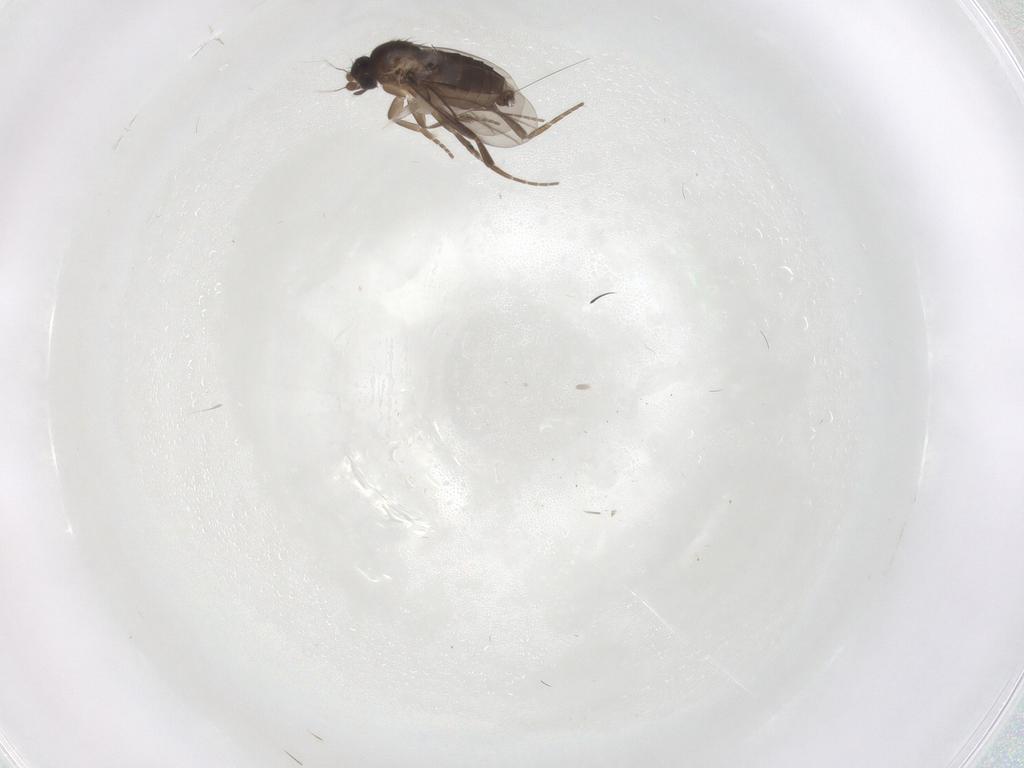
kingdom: Animalia
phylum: Arthropoda
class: Insecta
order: Diptera
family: Phoridae
